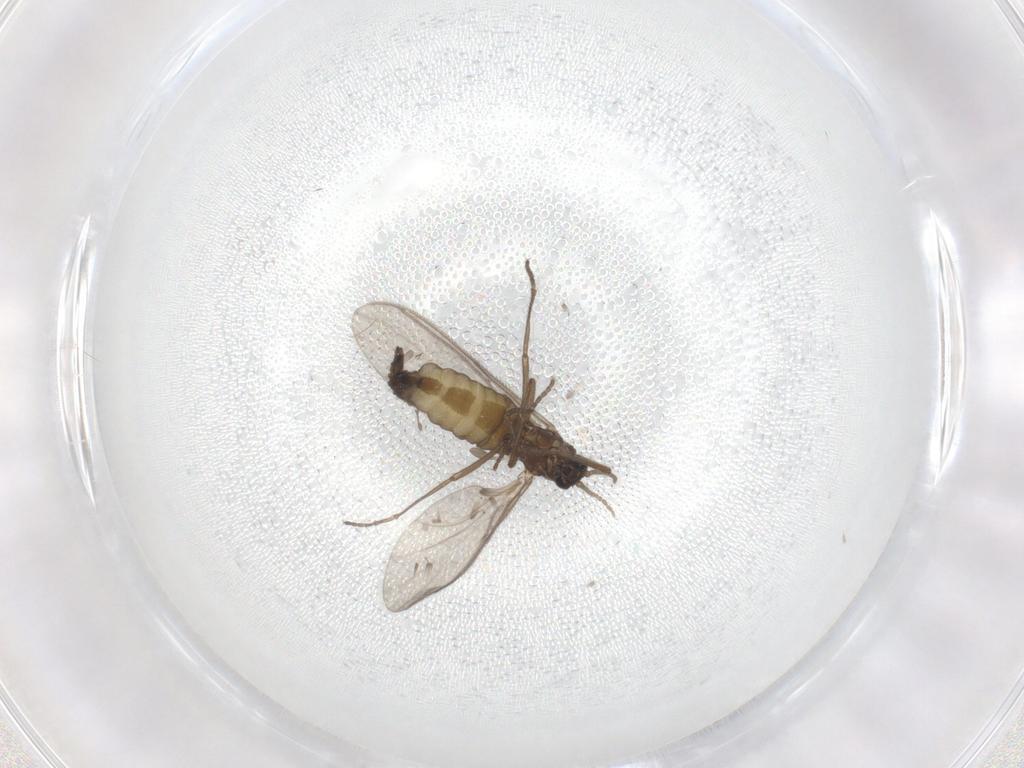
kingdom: Animalia
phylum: Arthropoda
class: Insecta
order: Diptera
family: Sciaridae
